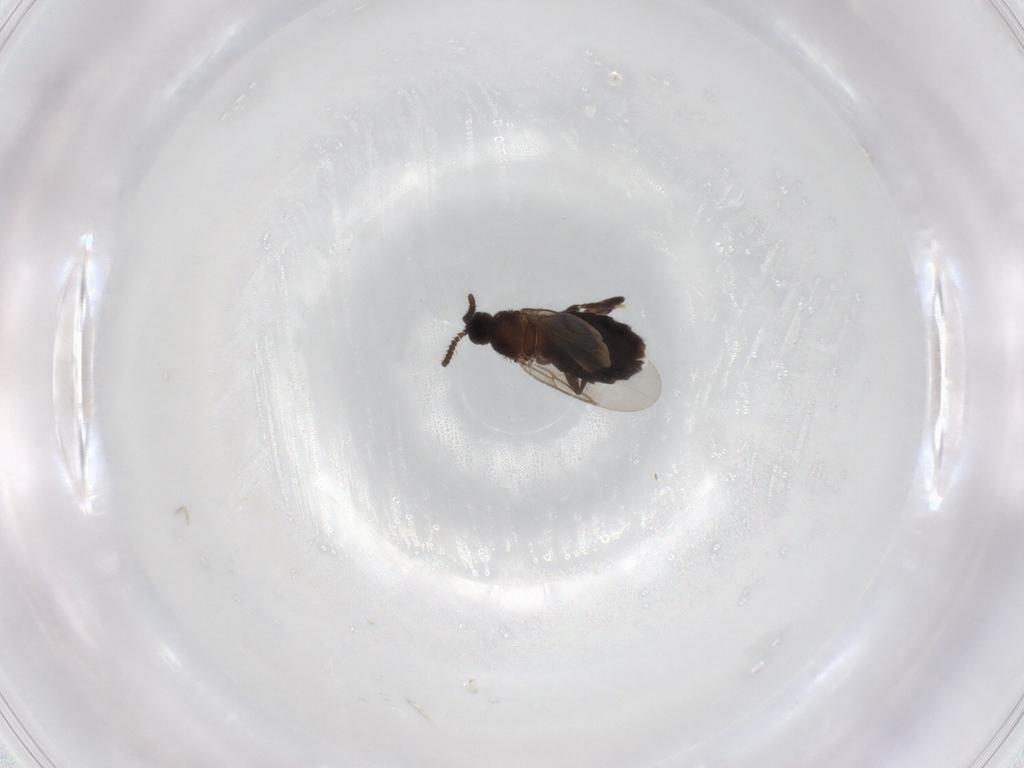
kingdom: Animalia
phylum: Arthropoda
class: Insecta
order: Diptera
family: Scatopsidae
